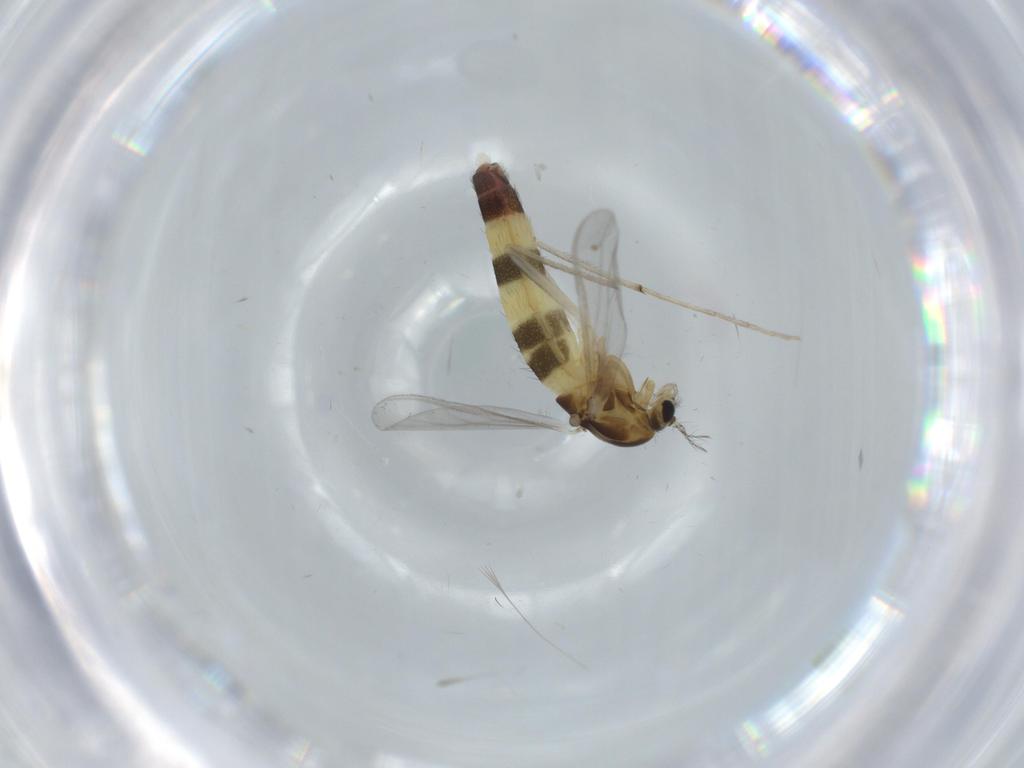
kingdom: Animalia
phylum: Arthropoda
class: Insecta
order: Diptera
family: Chironomidae
